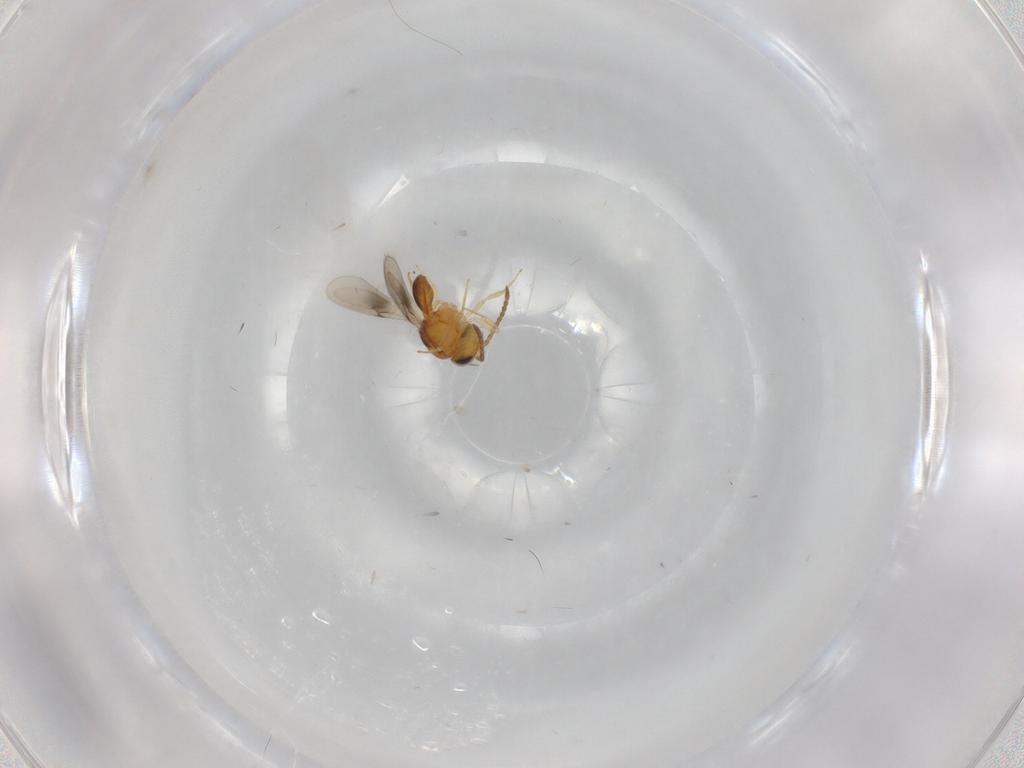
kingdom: Animalia
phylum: Arthropoda
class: Insecta
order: Hymenoptera
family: Scelionidae
